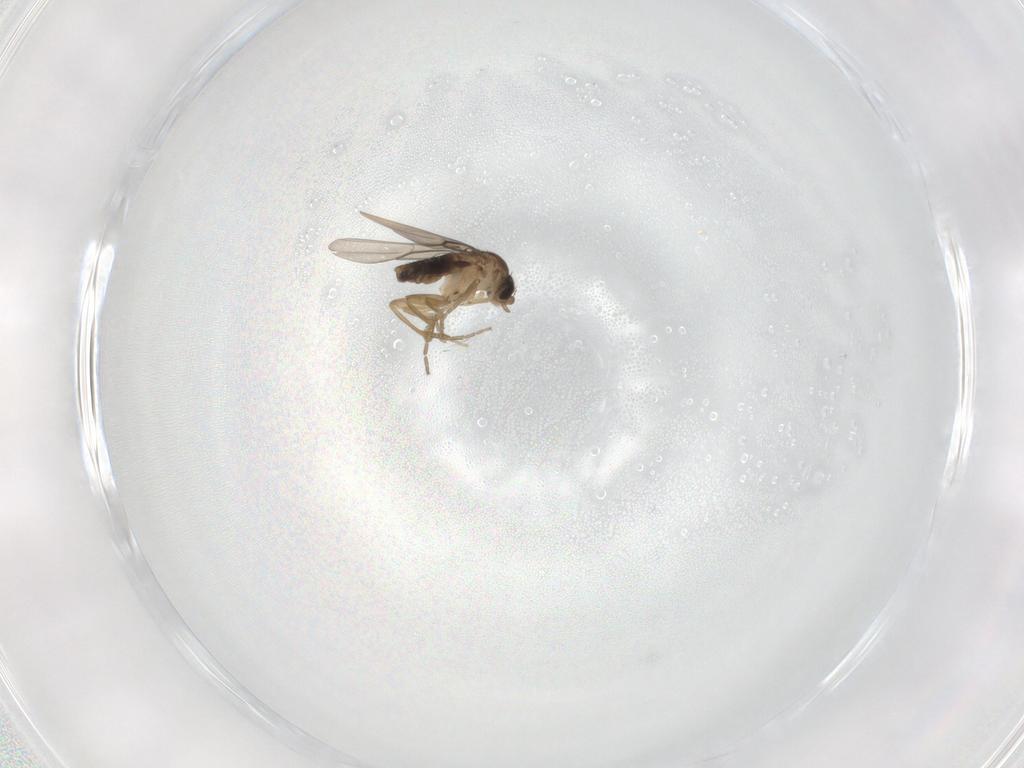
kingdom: Animalia
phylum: Arthropoda
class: Insecta
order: Diptera
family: Phoridae
